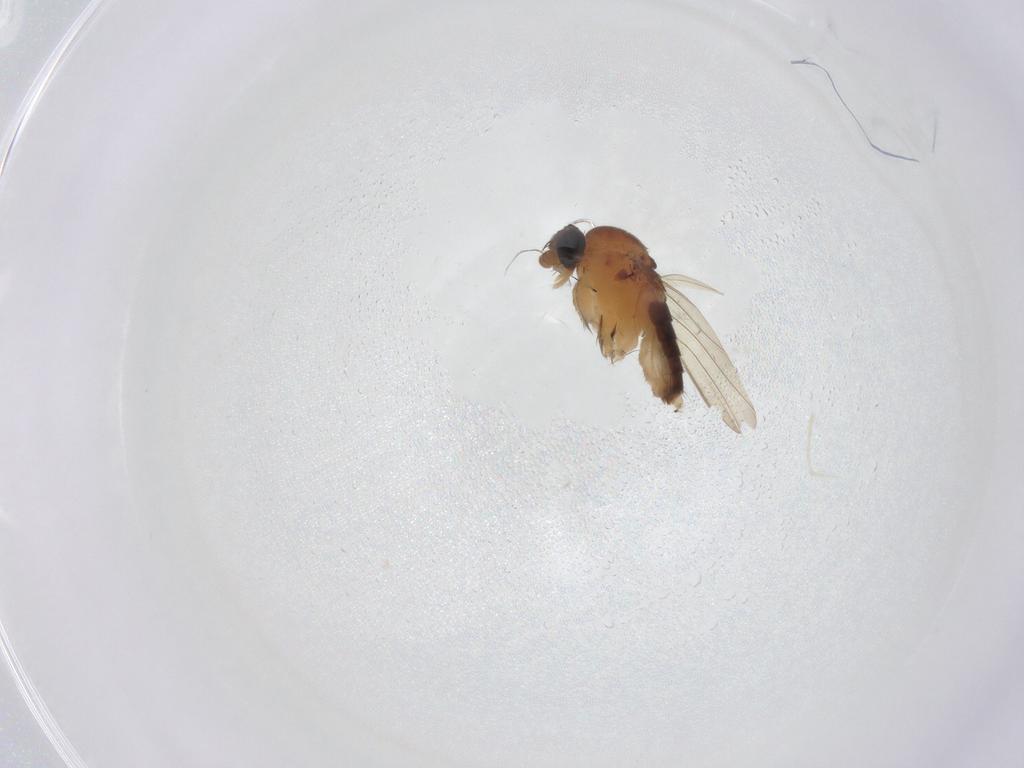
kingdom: Animalia
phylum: Arthropoda
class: Insecta
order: Diptera
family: Phoridae
